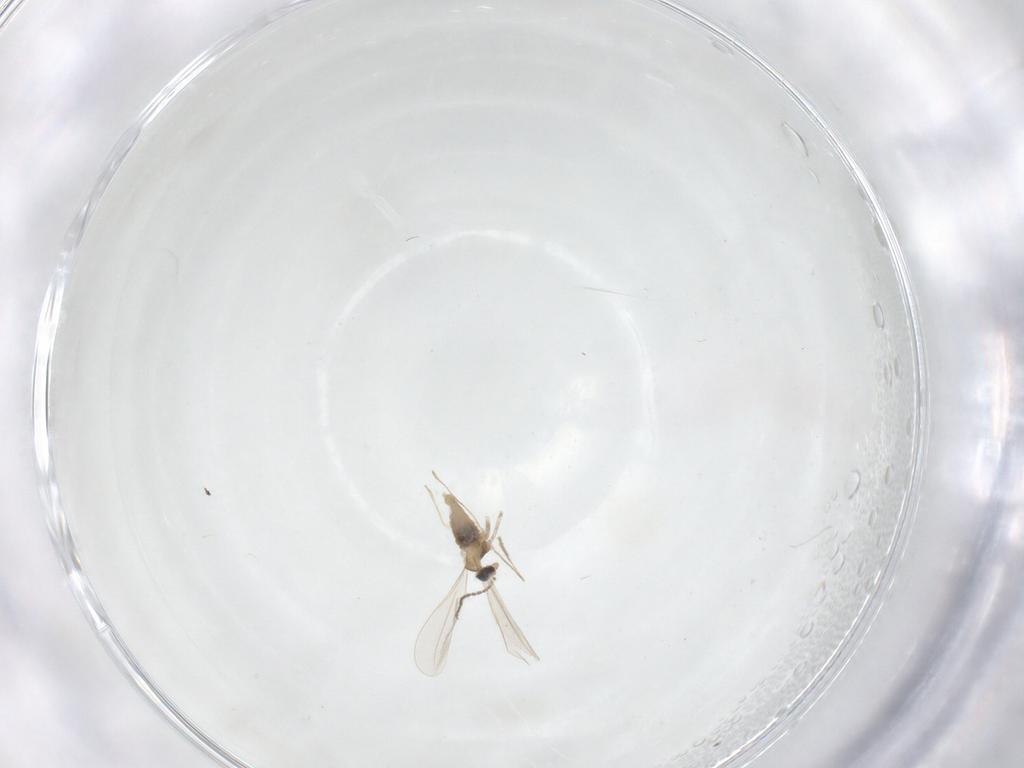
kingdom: Animalia
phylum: Arthropoda
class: Insecta
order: Diptera
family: Sciaridae
